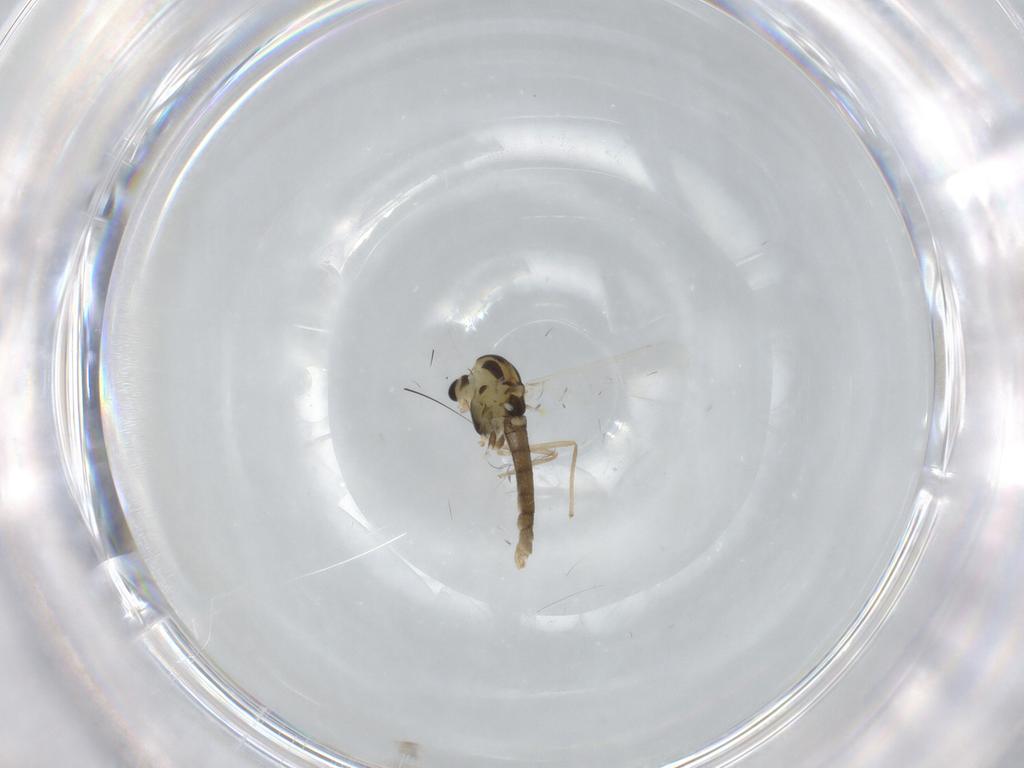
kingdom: Animalia
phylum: Arthropoda
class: Insecta
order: Diptera
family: Chironomidae
